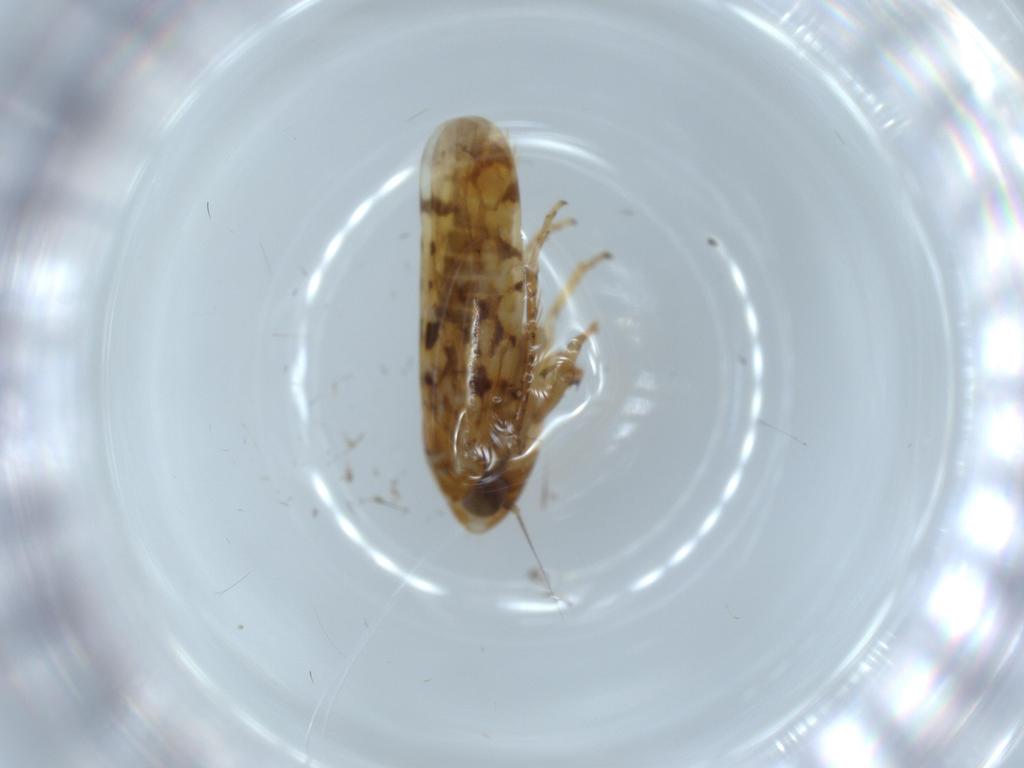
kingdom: Animalia
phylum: Arthropoda
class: Insecta
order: Hemiptera
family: Cicadellidae
